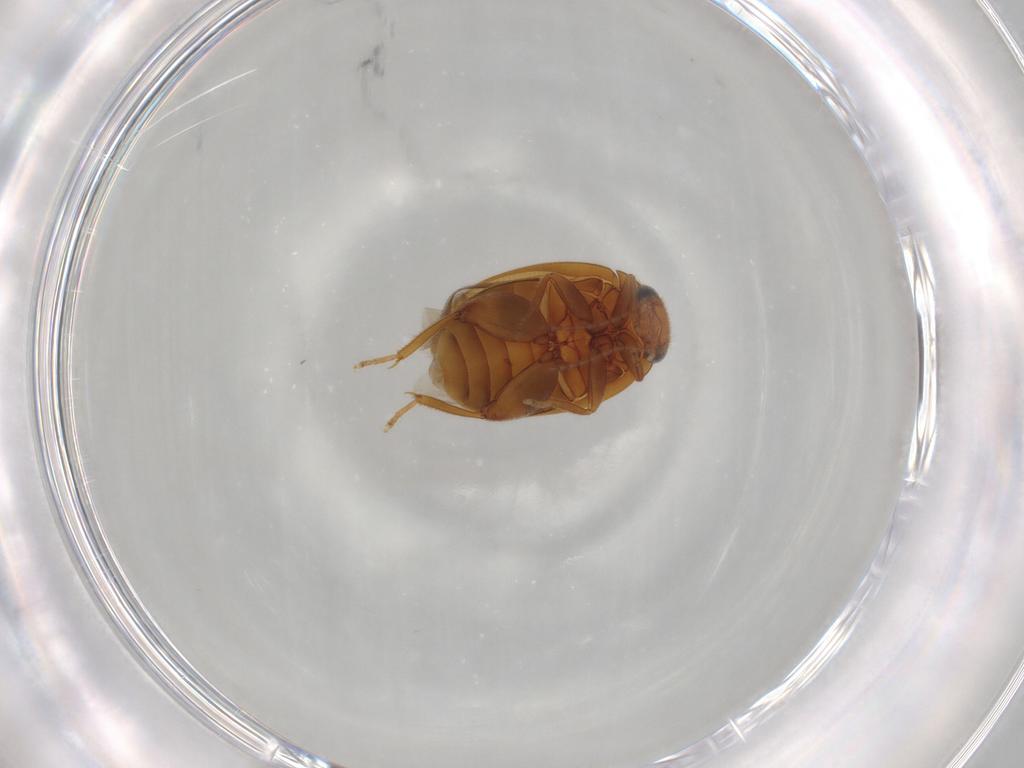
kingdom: Animalia
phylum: Arthropoda
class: Insecta
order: Coleoptera
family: Scirtidae
